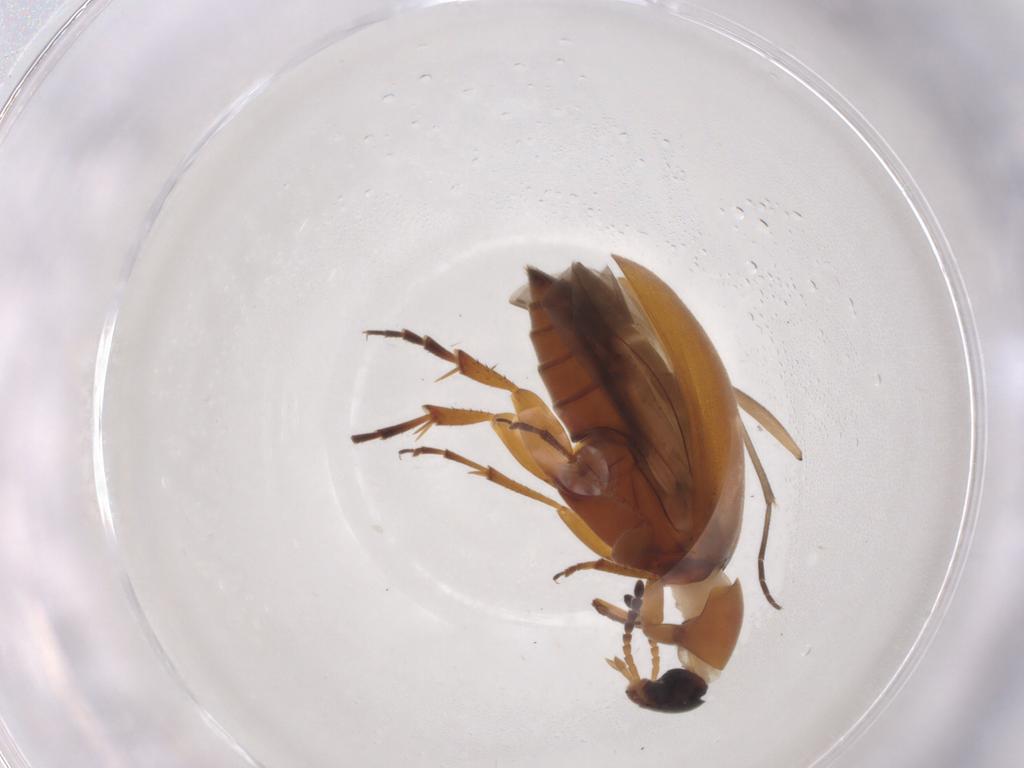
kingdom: Animalia
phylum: Arthropoda
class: Insecta
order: Coleoptera
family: Scraptiidae
